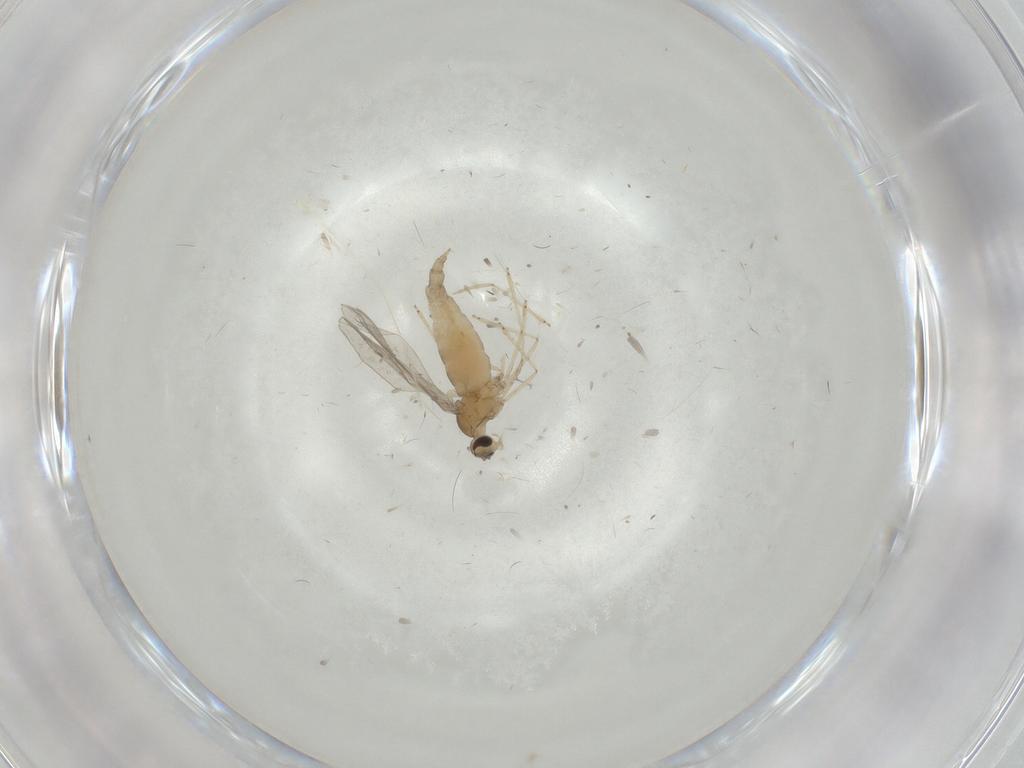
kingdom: Animalia
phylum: Arthropoda
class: Insecta
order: Diptera
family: Cecidomyiidae
